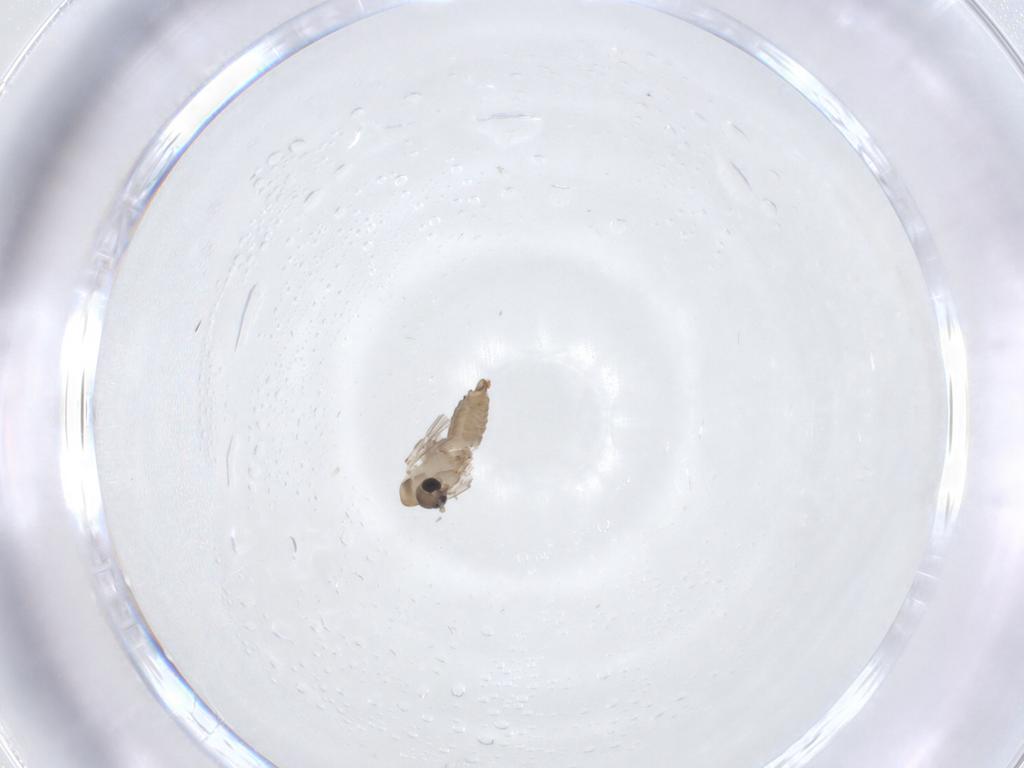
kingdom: Animalia
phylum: Arthropoda
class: Insecta
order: Diptera
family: Psychodidae
